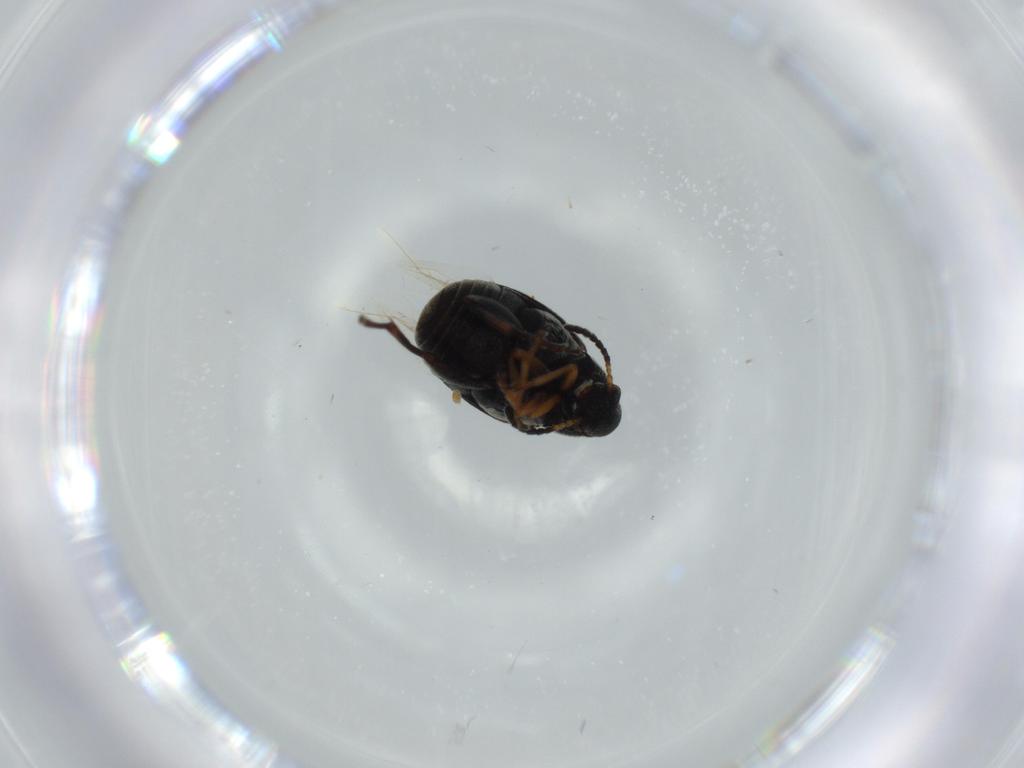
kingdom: Animalia
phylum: Arthropoda
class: Insecta
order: Coleoptera
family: Chrysomelidae
